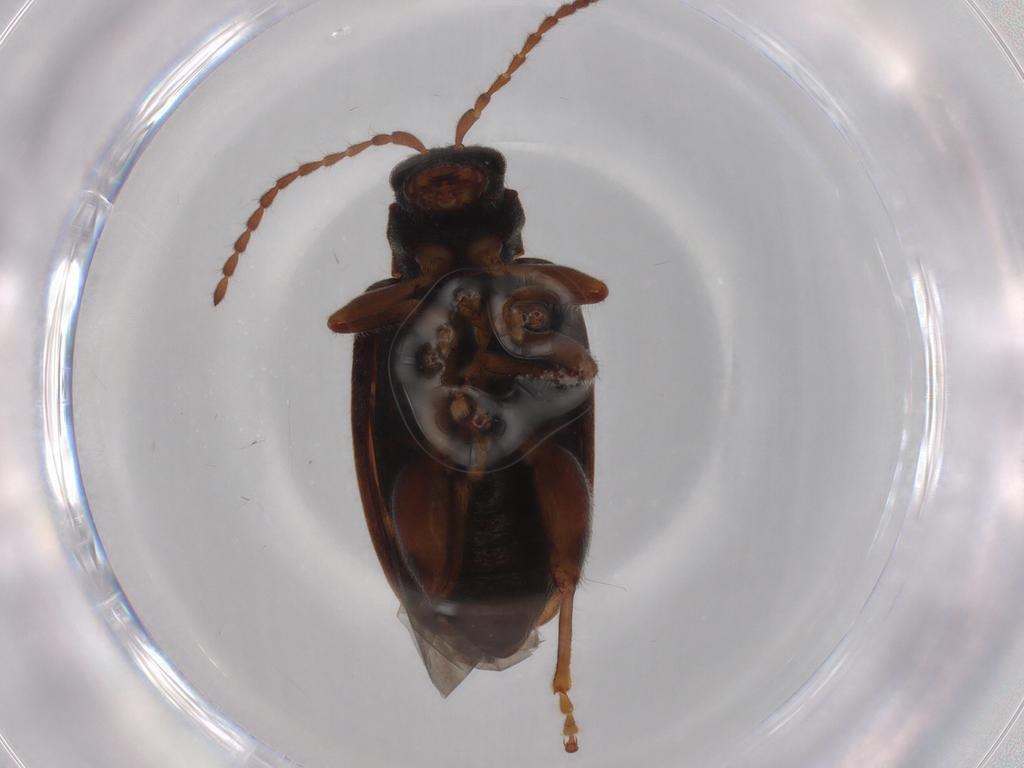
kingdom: Animalia
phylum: Arthropoda
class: Insecta
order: Coleoptera
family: Chrysomelidae
